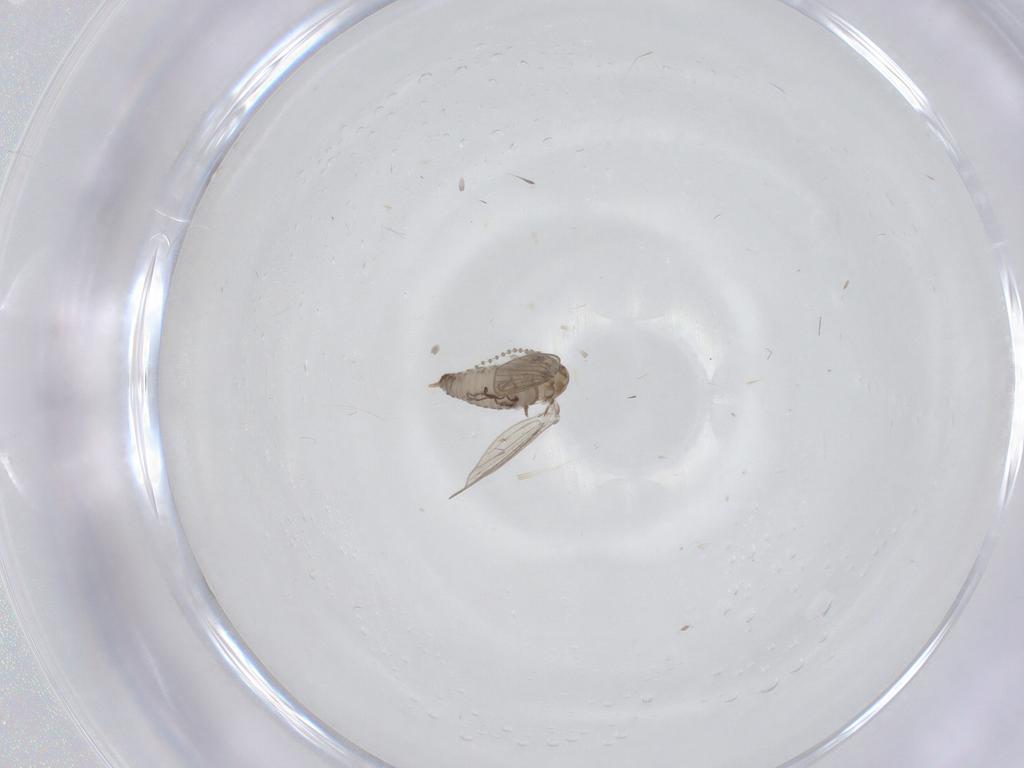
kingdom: Animalia
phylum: Arthropoda
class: Insecta
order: Diptera
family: Psychodidae
